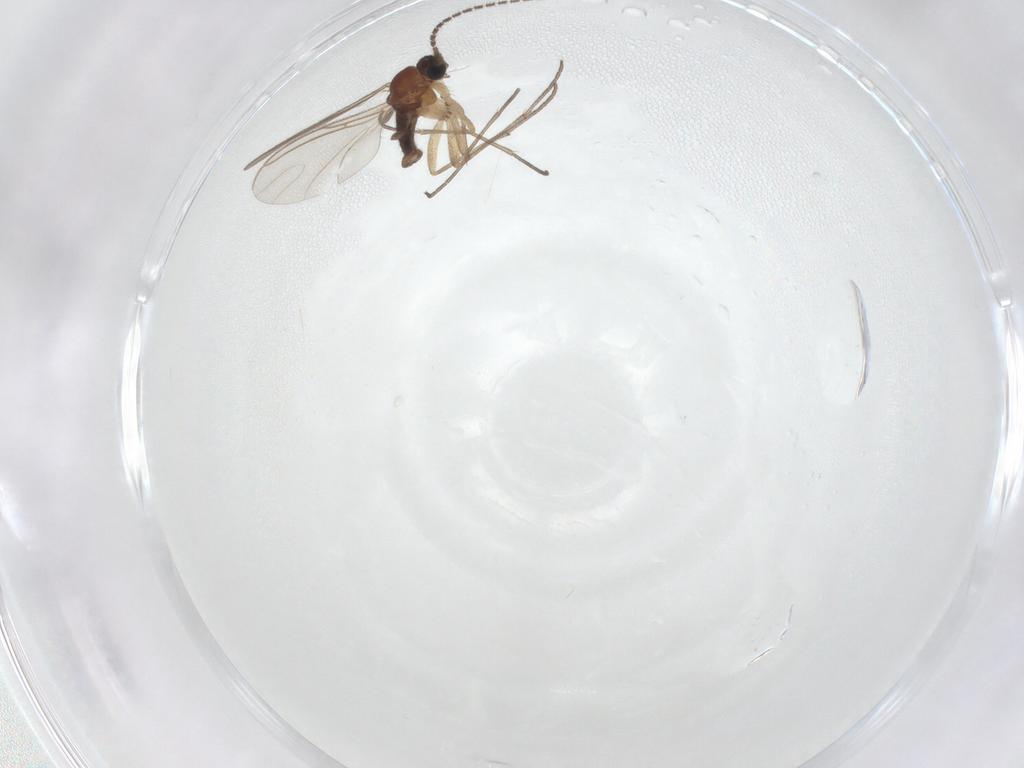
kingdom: Animalia
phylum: Arthropoda
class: Insecta
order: Diptera
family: Sciaridae
